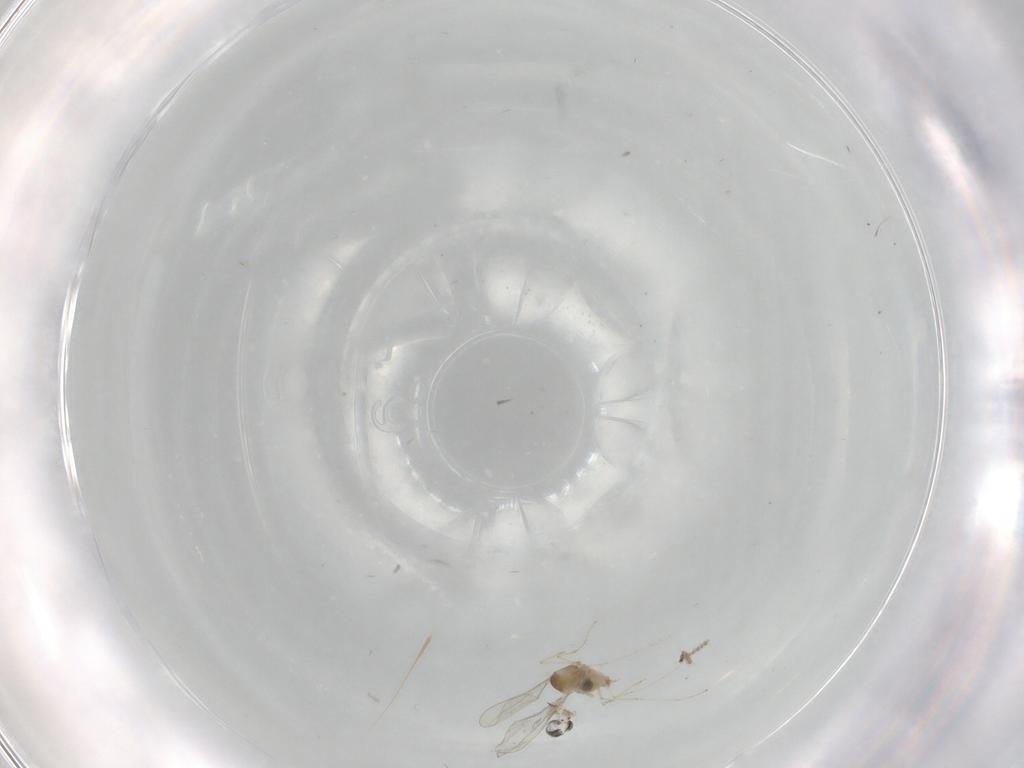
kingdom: Animalia
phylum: Arthropoda
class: Insecta
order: Diptera
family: Cecidomyiidae
